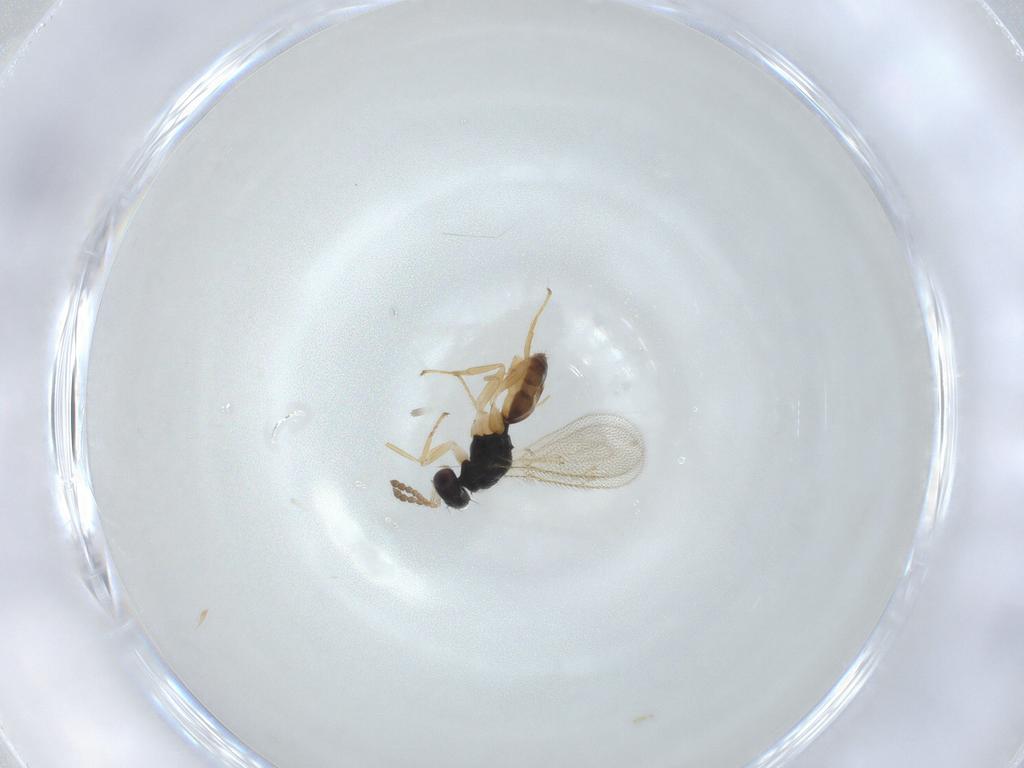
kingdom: Animalia
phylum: Arthropoda
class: Insecta
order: Hymenoptera
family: Eulophidae
